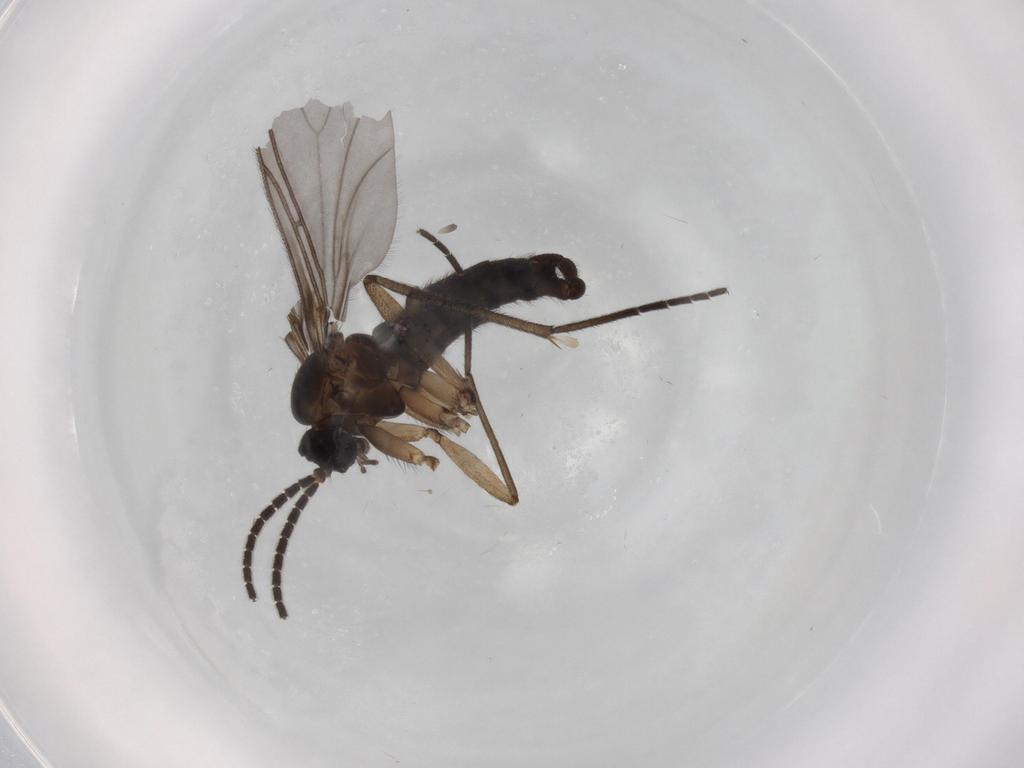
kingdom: Animalia
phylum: Arthropoda
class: Insecta
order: Diptera
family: Sciaridae
